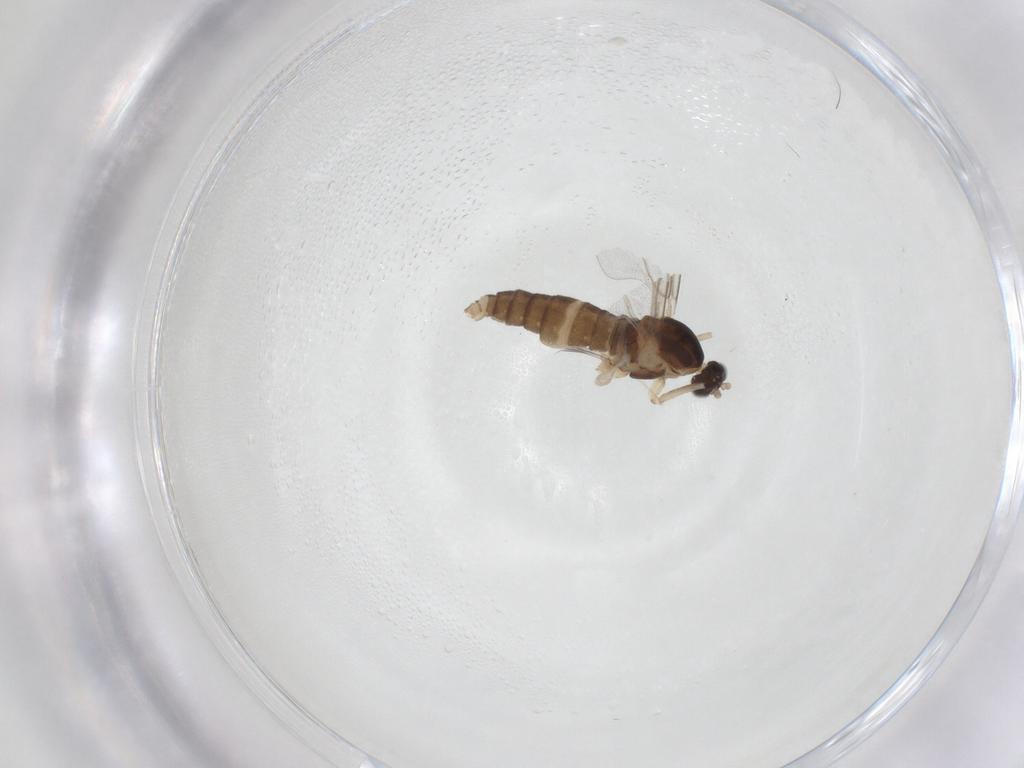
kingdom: Animalia
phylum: Arthropoda
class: Insecta
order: Diptera
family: Cecidomyiidae
